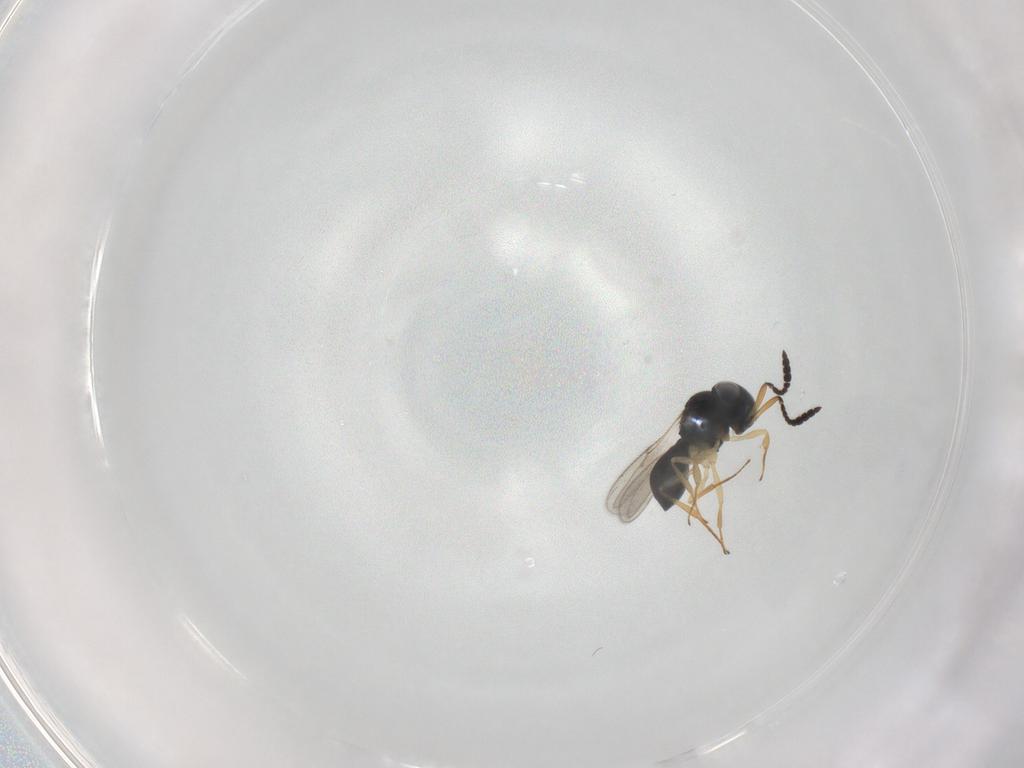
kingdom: Animalia
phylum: Arthropoda
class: Insecta
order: Hymenoptera
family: Scelionidae
